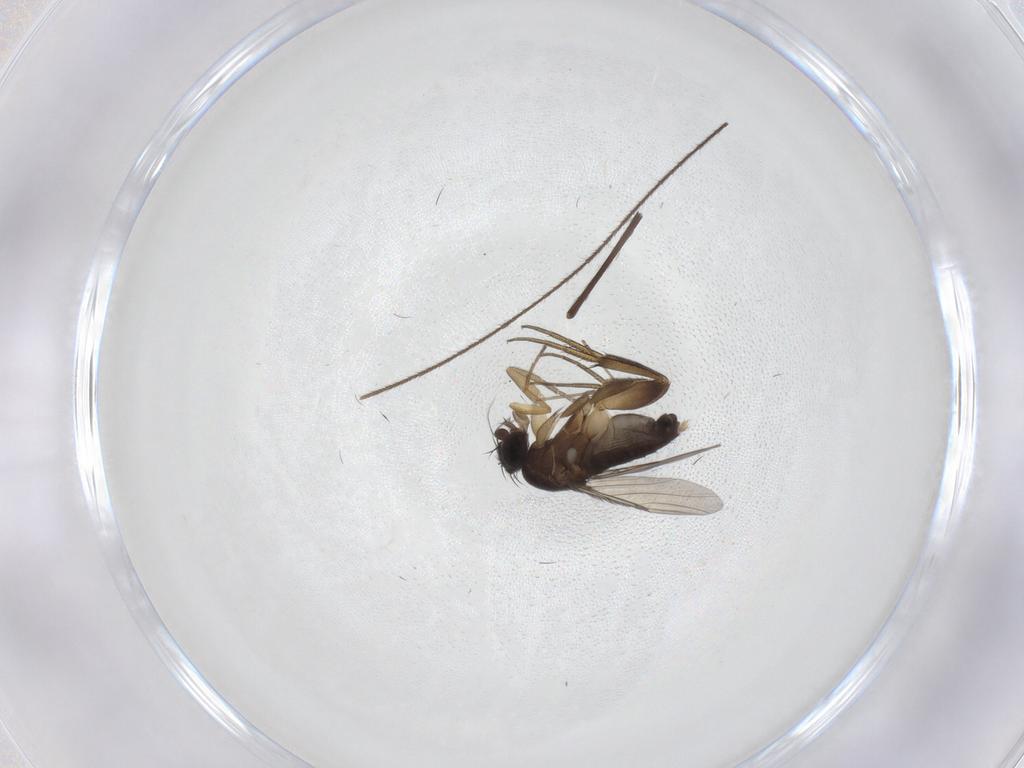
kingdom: Animalia
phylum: Arthropoda
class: Insecta
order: Diptera
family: Phoridae
